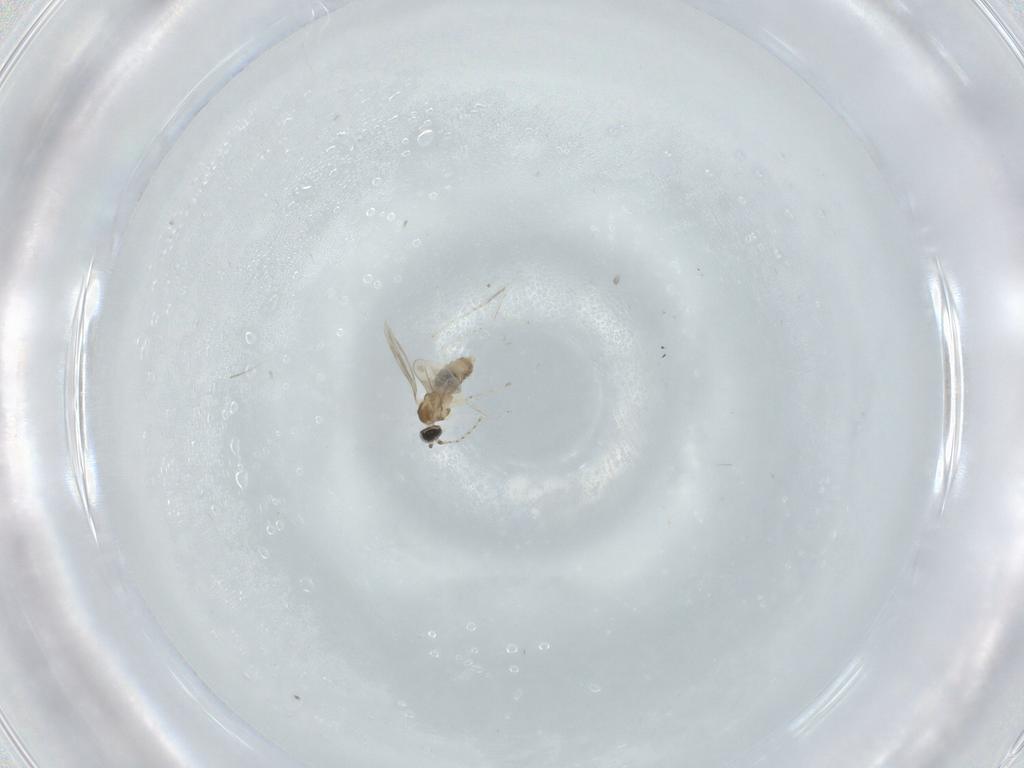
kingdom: Animalia
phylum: Arthropoda
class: Insecta
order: Diptera
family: Cecidomyiidae
